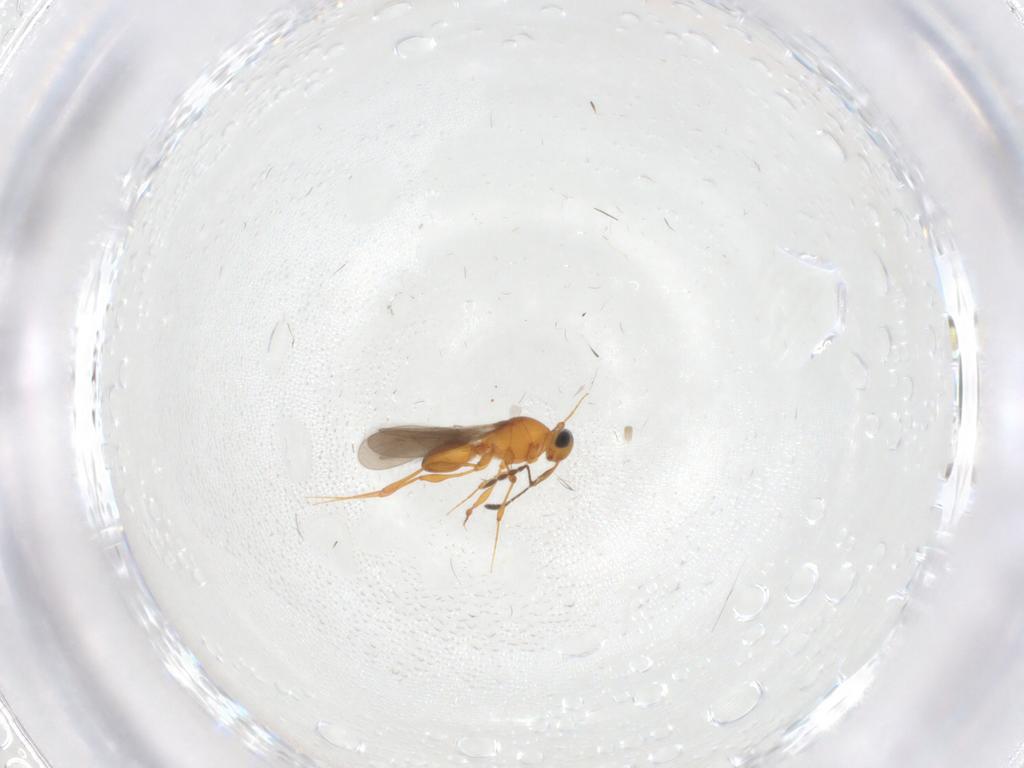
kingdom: Animalia
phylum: Arthropoda
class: Insecta
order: Hymenoptera
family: Platygastridae
